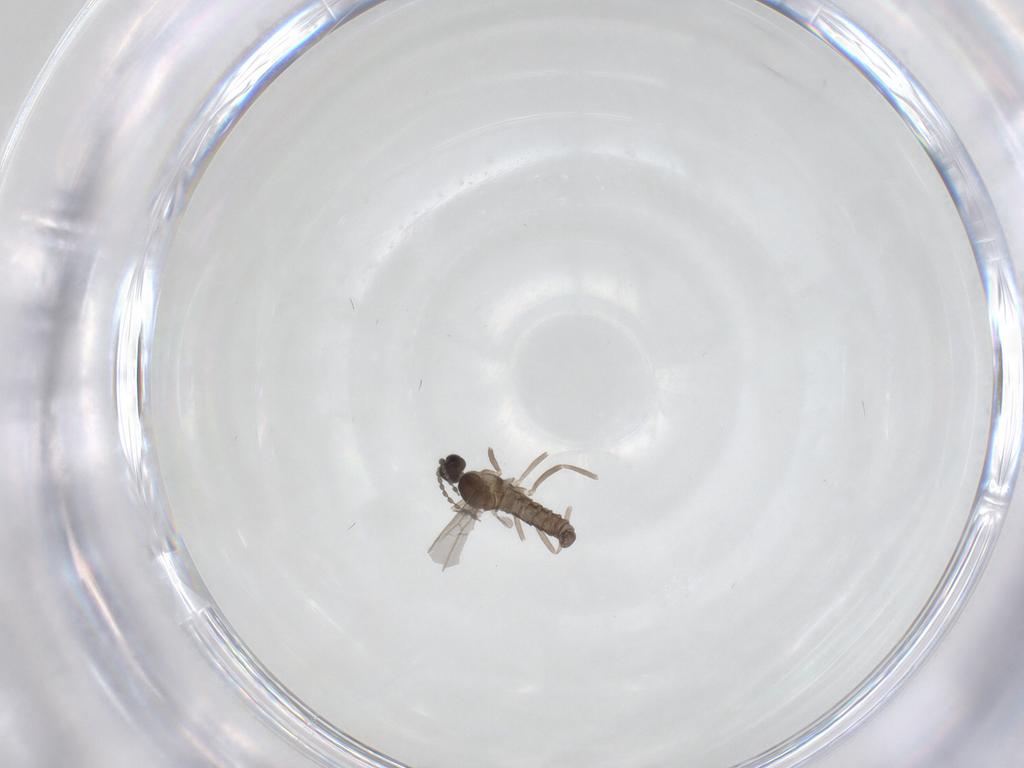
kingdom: Animalia
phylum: Arthropoda
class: Insecta
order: Diptera
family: Cecidomyiidae
